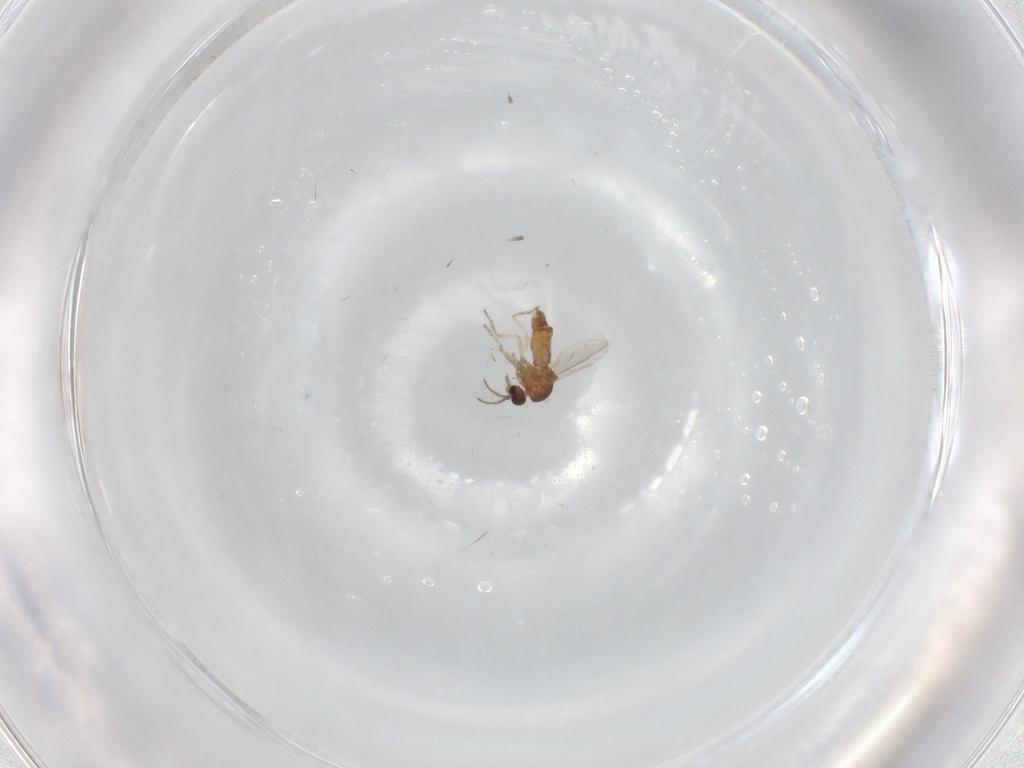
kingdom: Animalia
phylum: Arthropoda
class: Insecta
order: Diptera
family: Ceratopogonidae
